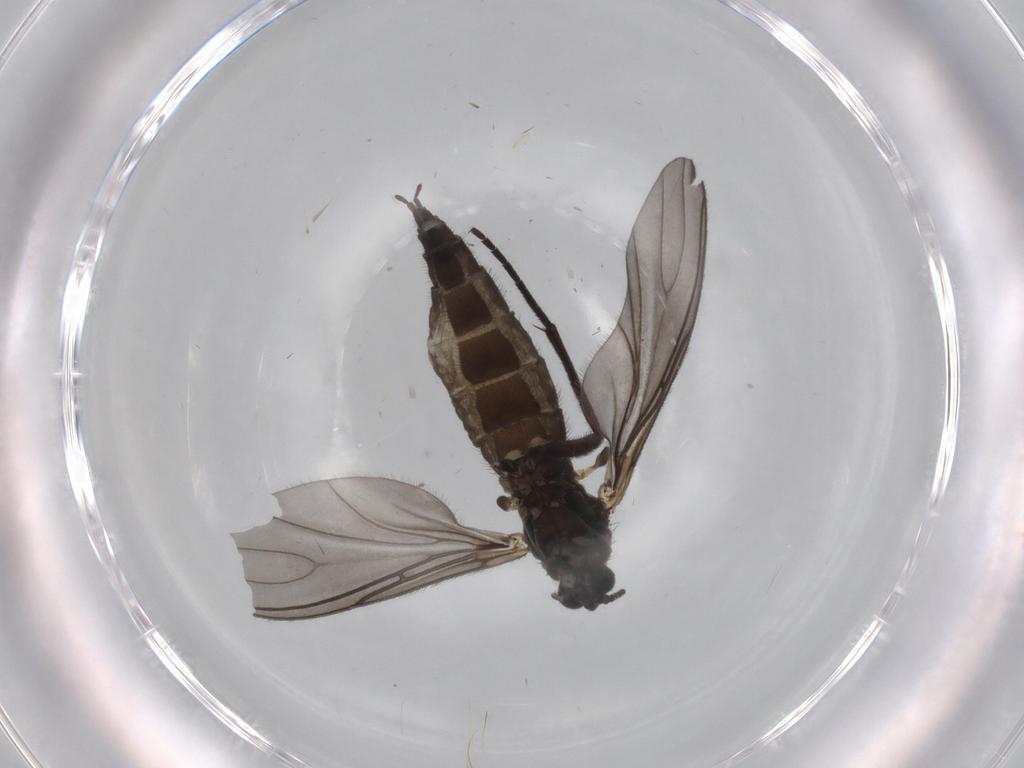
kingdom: Animalia
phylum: Arthropoda
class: Insecta
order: Diptera
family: Sciaridae
